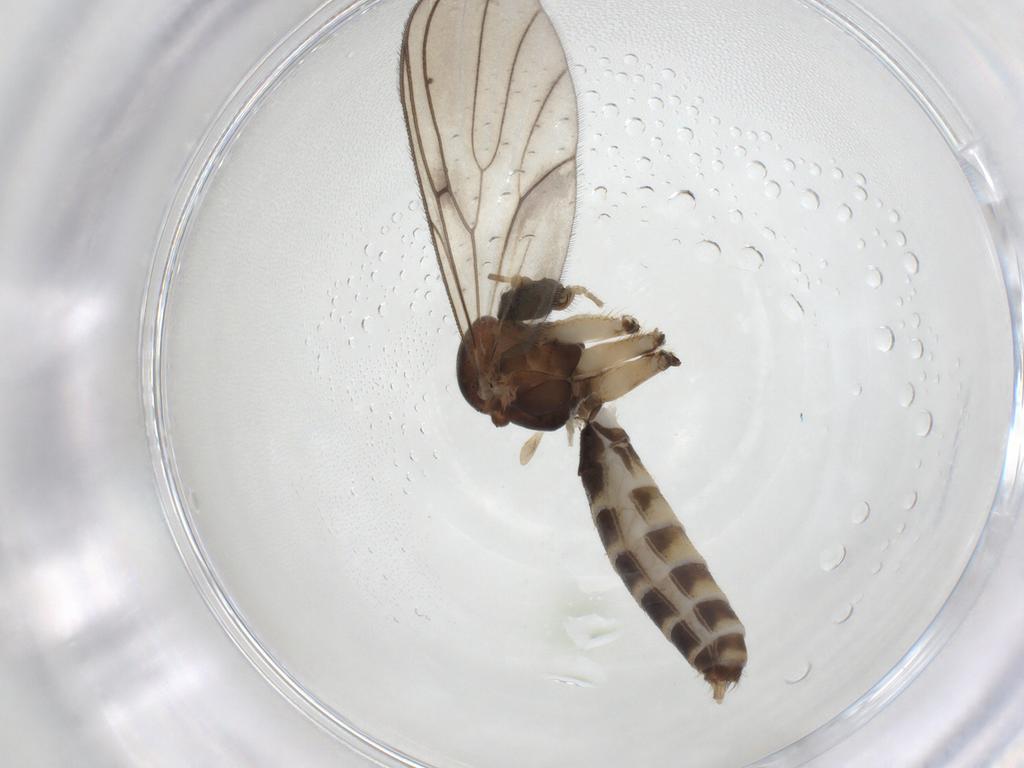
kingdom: Animalia
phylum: Arthropoda
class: Insecta
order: Diptera
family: Mycetophilidae
